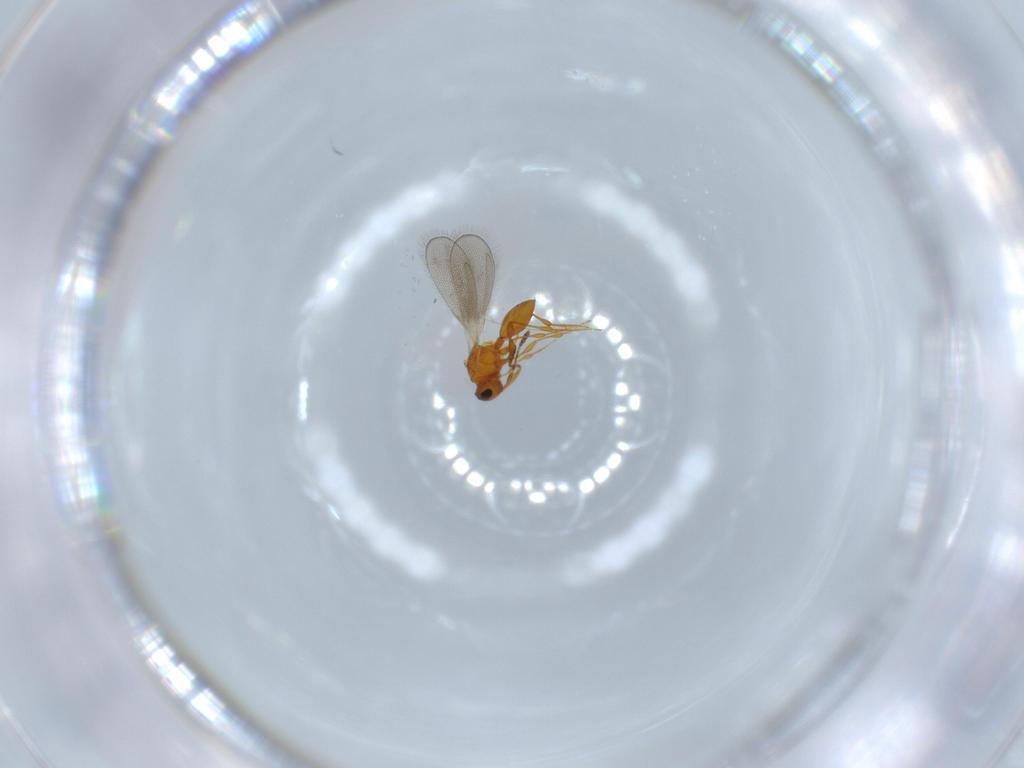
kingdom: Animalia
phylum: Arthropoda
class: Insecta
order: Hymenoptera
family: Platygastridae
